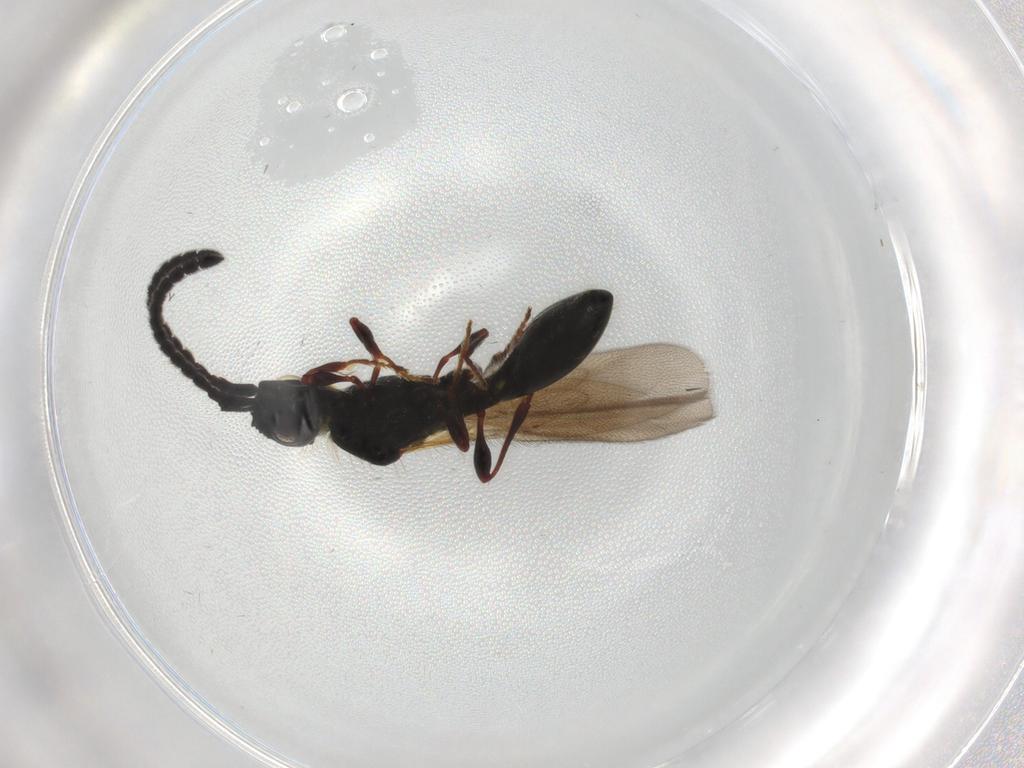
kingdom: Animalia
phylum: Arthropoda
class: Insecta
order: Hymenoptera
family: Diapriidae
